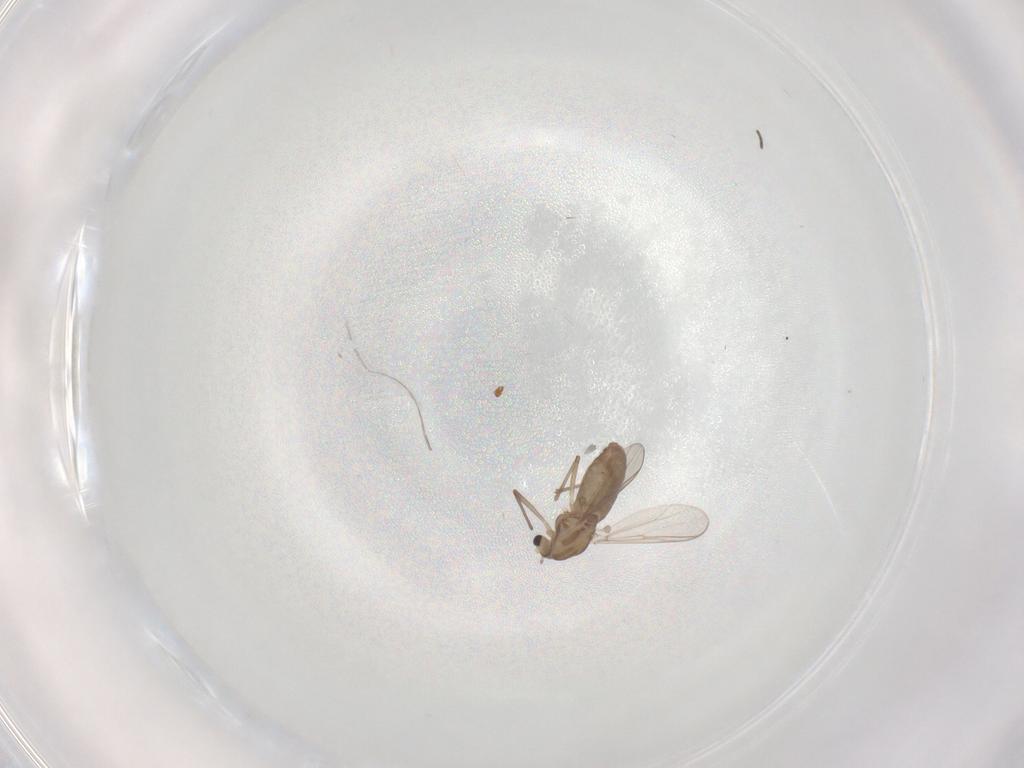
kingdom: Animalia
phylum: Arthropoda
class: Insecta
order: Diptera
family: Chironomidae
